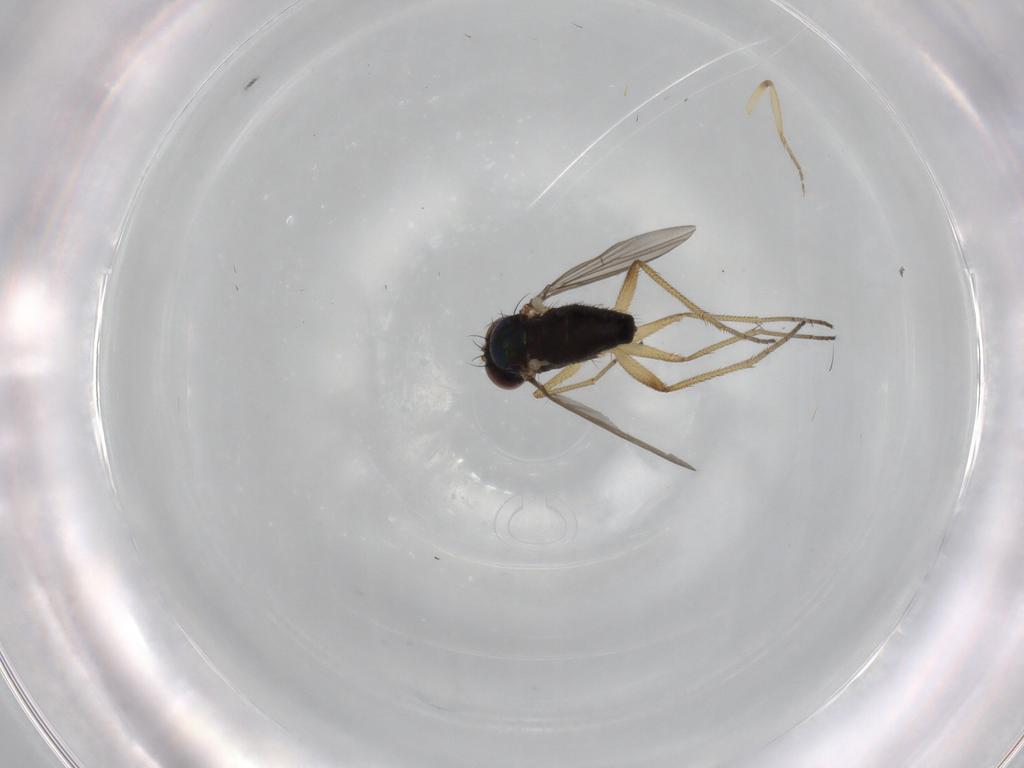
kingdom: Animalia
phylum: Arthropoda
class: Insecta
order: Diptera
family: Dolichopodidae
